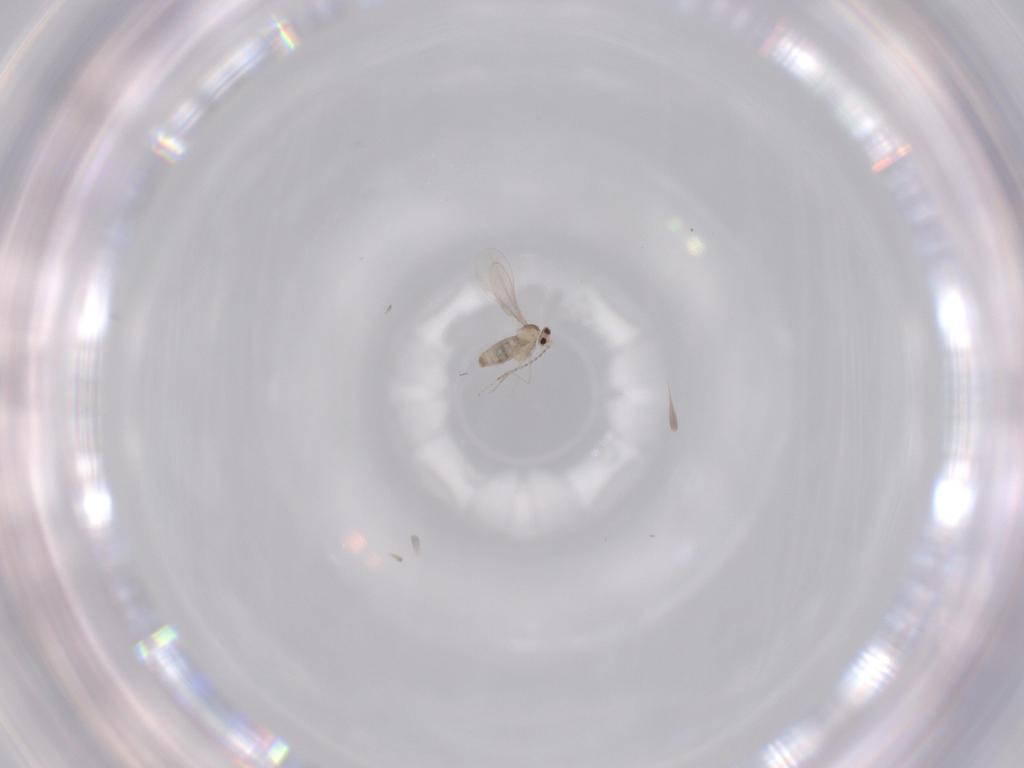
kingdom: Animalia
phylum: Arthropoda
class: Insecta
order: Diptera
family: Cecidomyiidae
